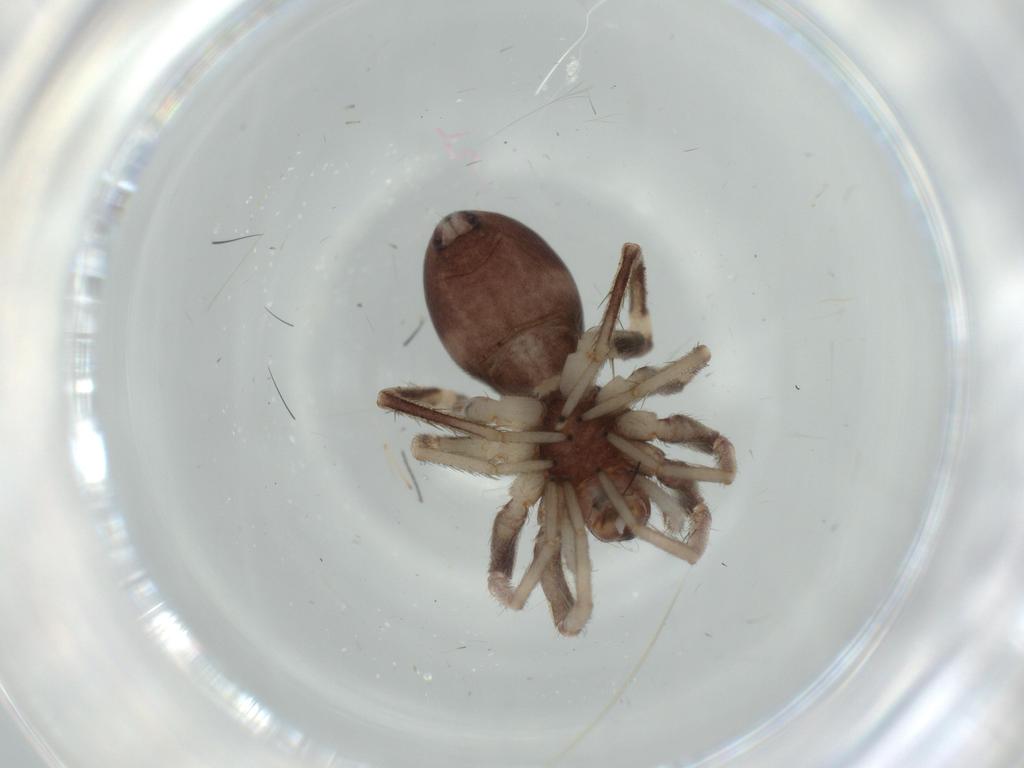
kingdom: Animalia
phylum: Arthropoda
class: Arachnida
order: Araneae
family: Corinnidae
